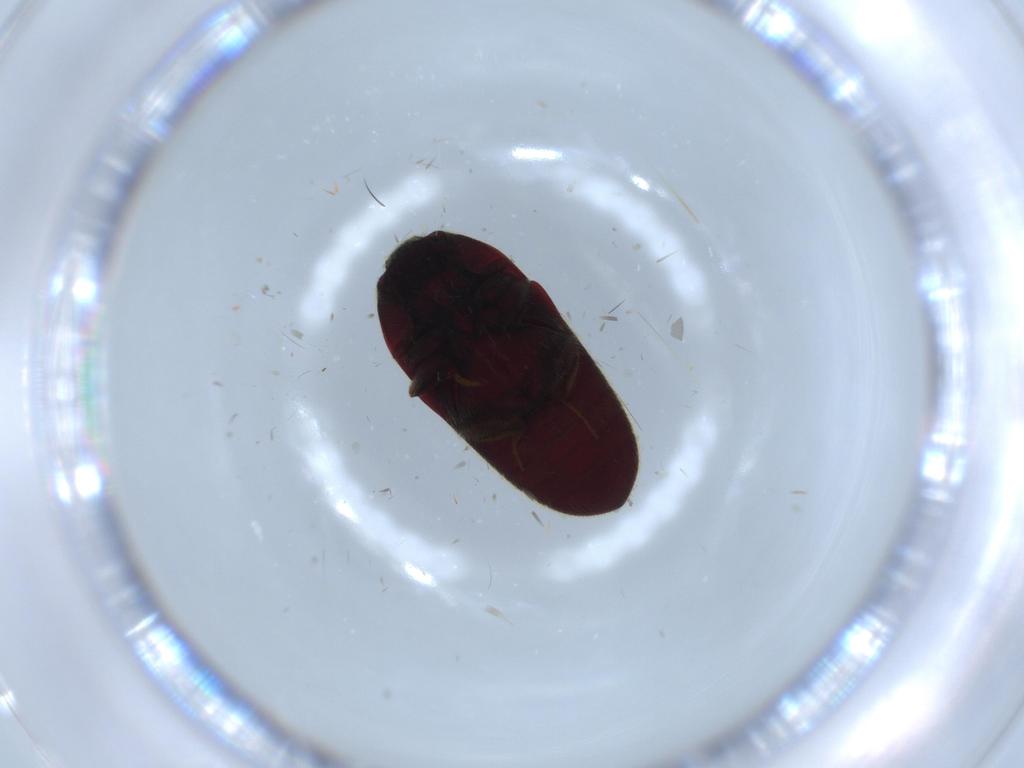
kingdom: Animalia
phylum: Arthropoda
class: Insecta
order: Coleoptera
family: Throscidae
